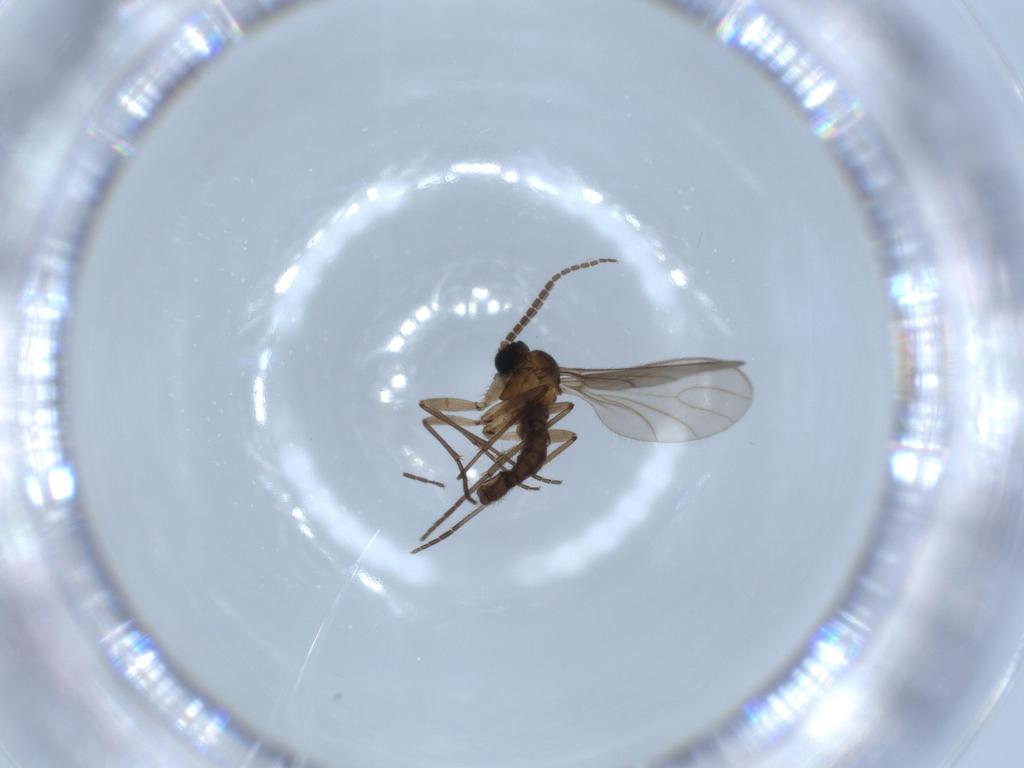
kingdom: Animalia
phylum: Arthropoda
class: Insecta
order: Diptera
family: Sciaridae
